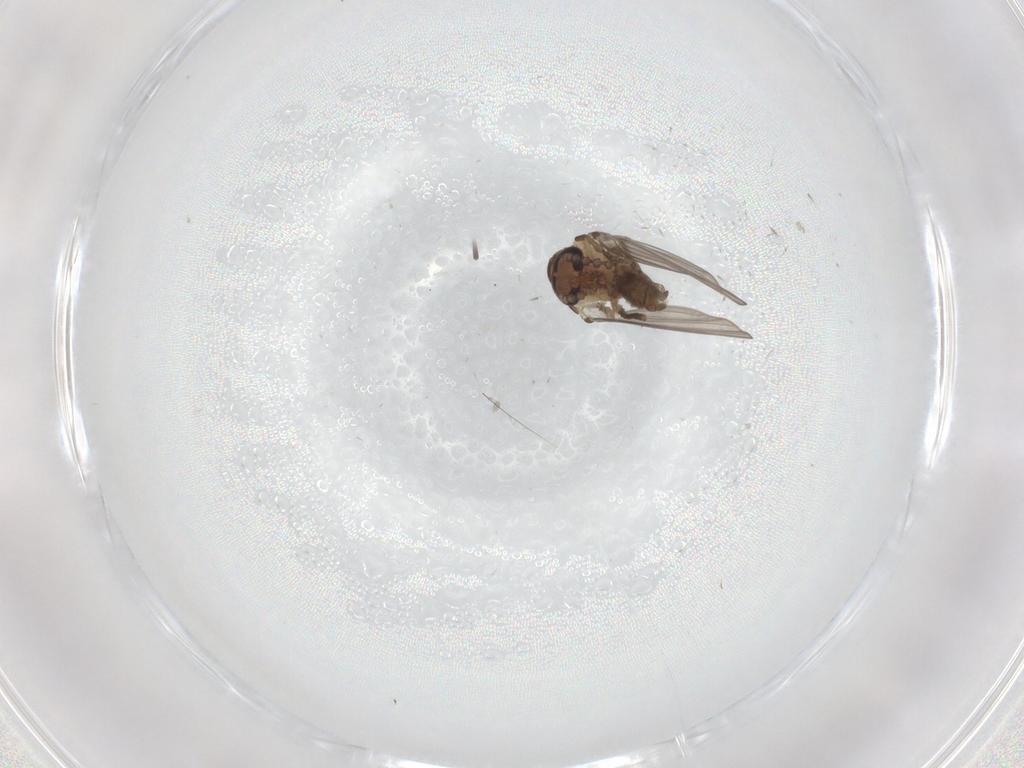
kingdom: Animalia
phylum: Arthropoda
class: Insecta
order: Diptera
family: Psychodidae
